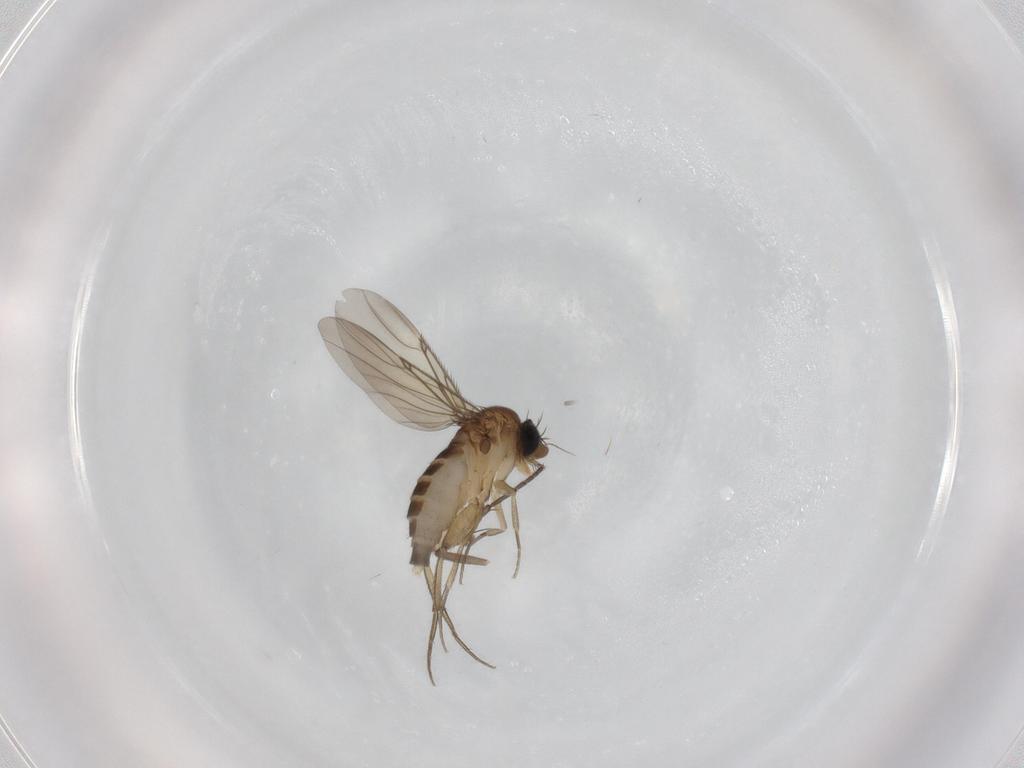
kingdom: Animalia
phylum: Arthropoda
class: Insecta
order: Diptera
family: Phoridae
